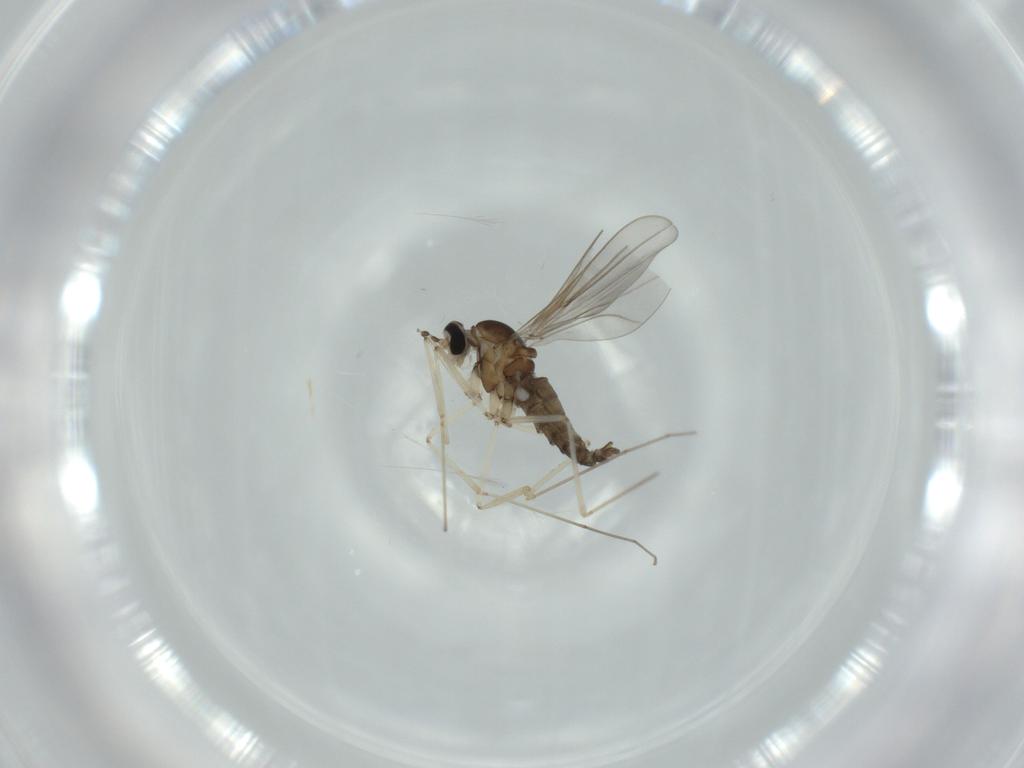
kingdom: Animalia
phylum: Arthropoda
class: Insecta
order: Diptera
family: Cecidomyiidae
